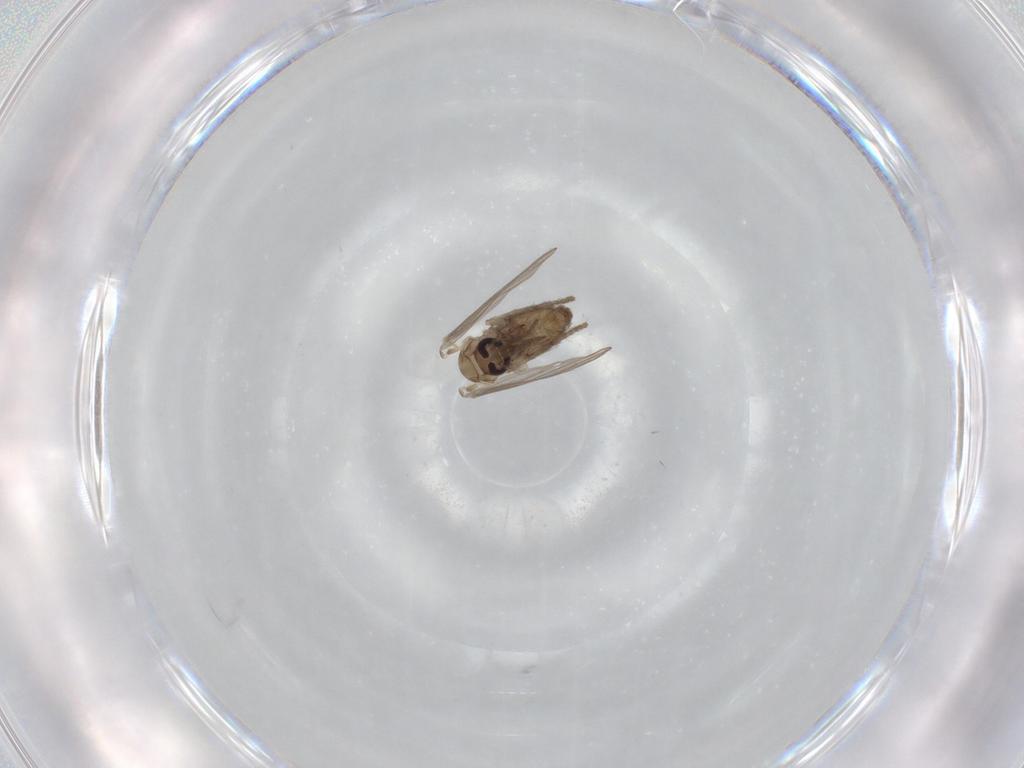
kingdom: Animalia
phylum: Arthropoda
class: Insecta
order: Diptera
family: Psychodidae
